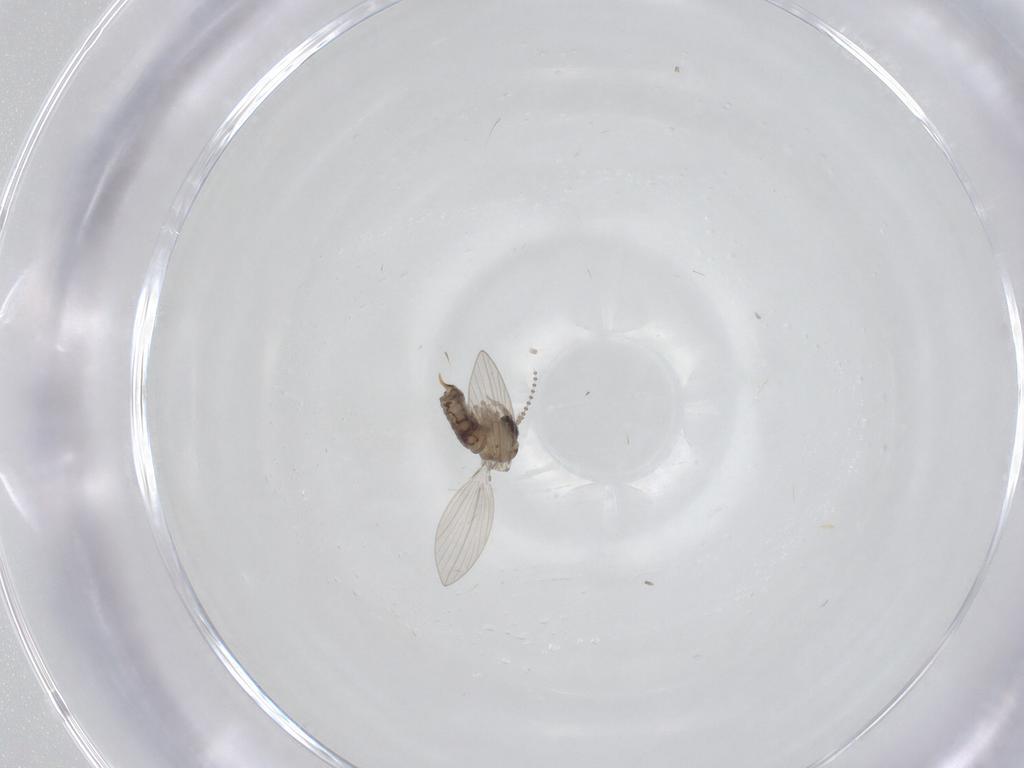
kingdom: Animalia
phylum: Arthropoda
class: Insecta
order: Diptera
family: Psychodidae
